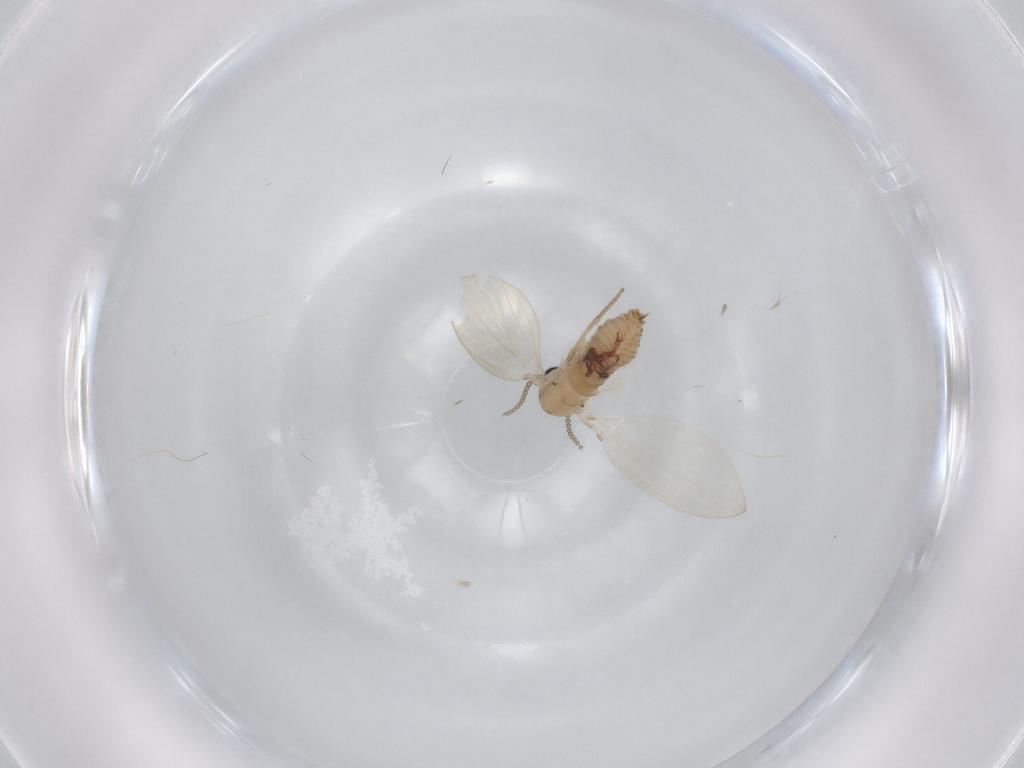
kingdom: Animalia
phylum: Arthropoda
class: Insecta
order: Diptera
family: Psychodidae
